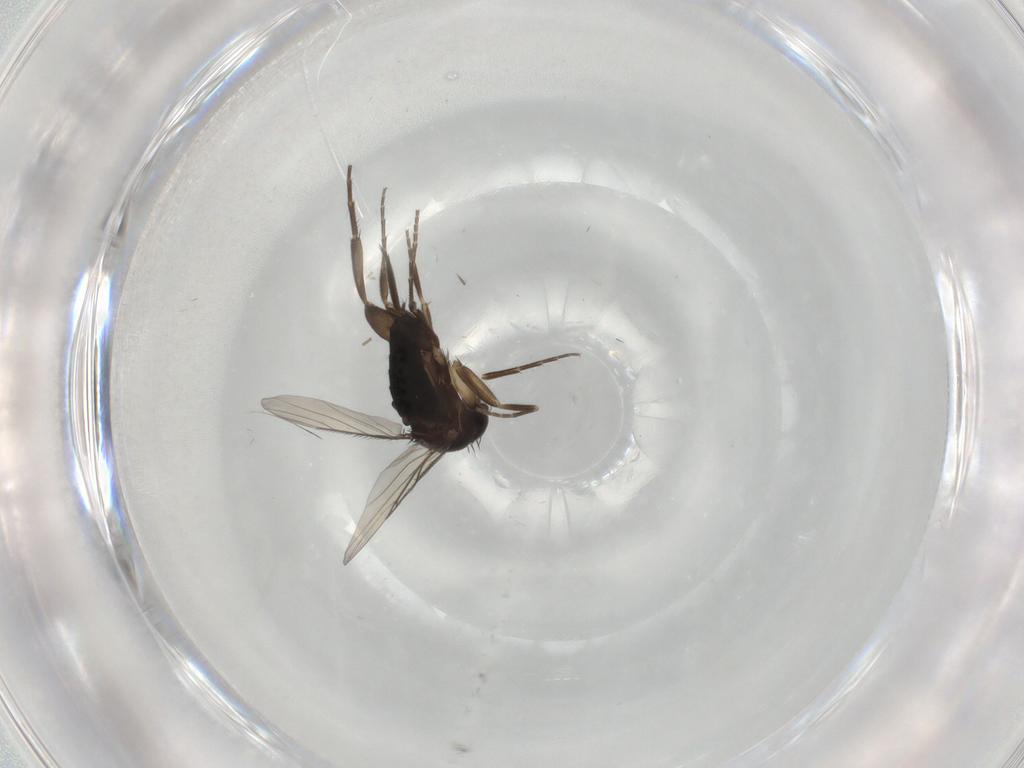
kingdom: Animalia
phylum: Arthropoda
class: Insecta
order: Diptera
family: Phoridae
